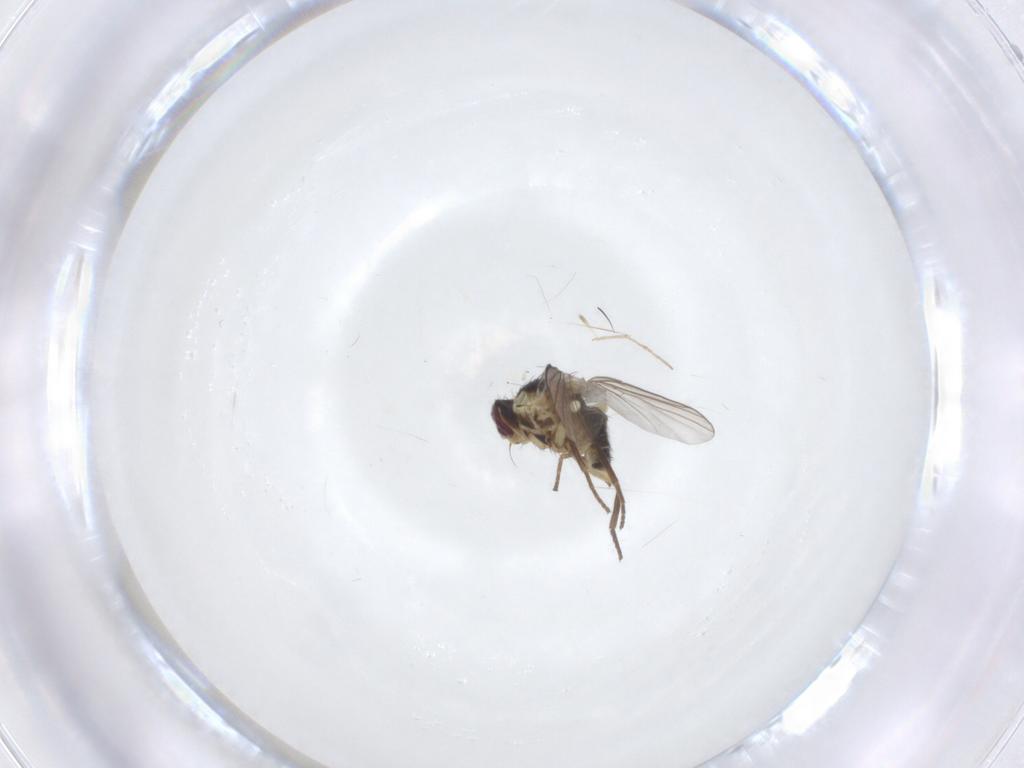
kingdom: Animalia
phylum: Arthropoda
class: Insecta
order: Diptera
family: Agromyzidae
